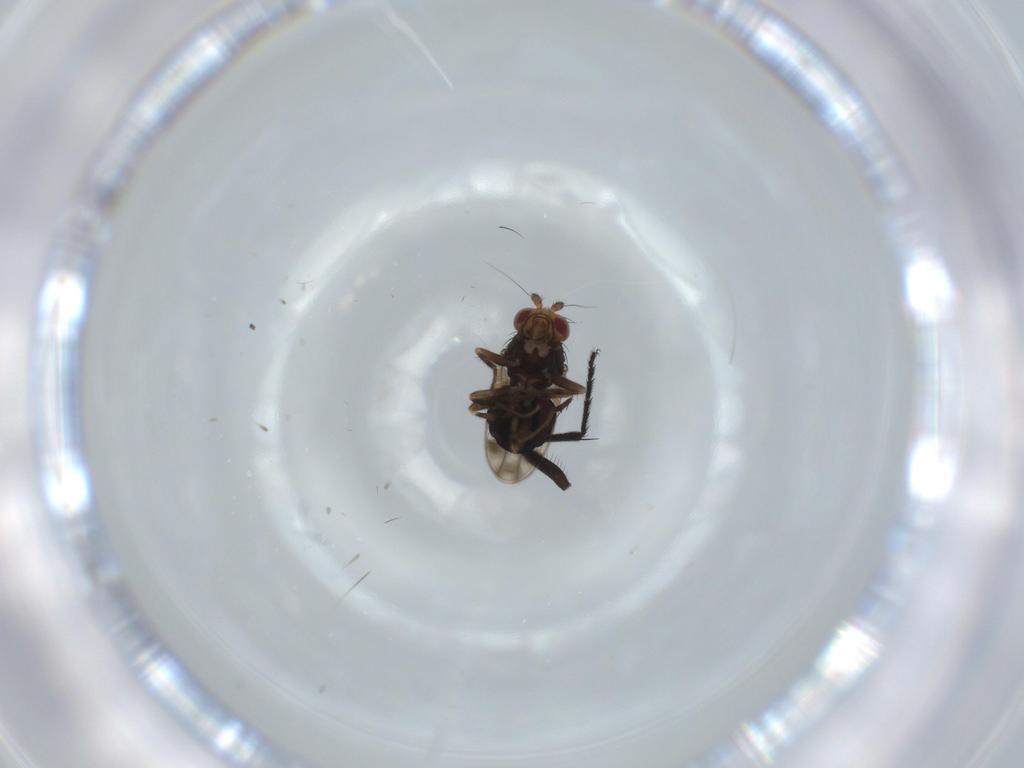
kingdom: Animalia
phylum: Arthropoda
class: Insecta
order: Diptera
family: Sphaeroceridae
